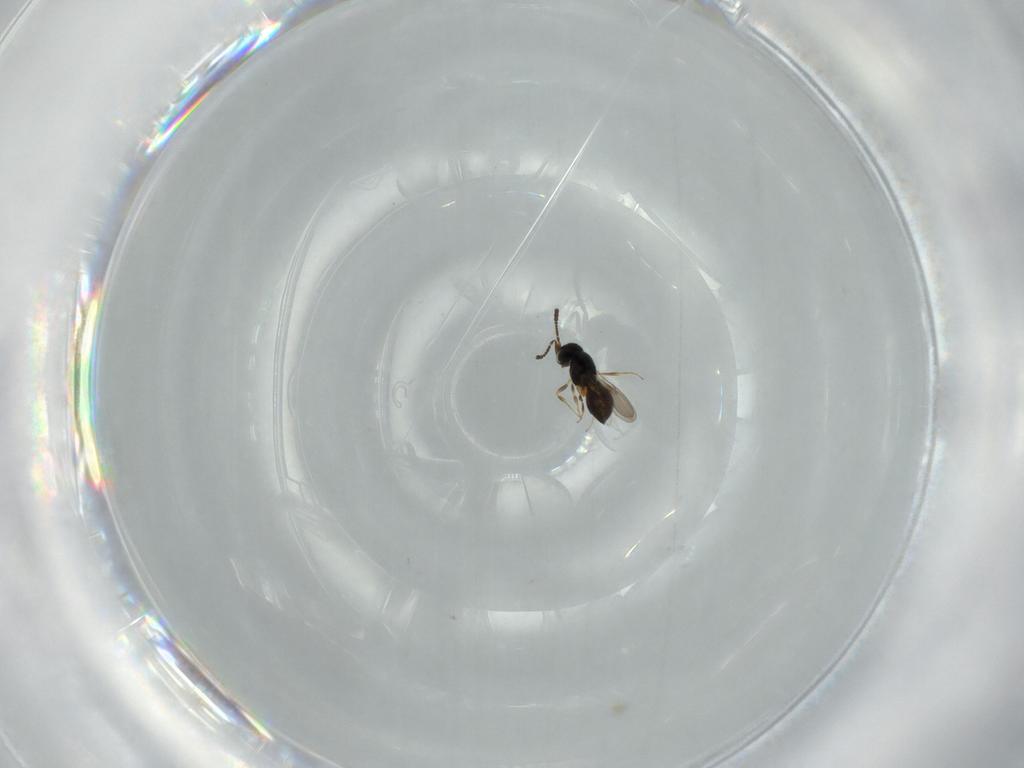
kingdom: Animalia
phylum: Arthropoda
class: Insecta
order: Hymenoptera
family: Scelionidae
